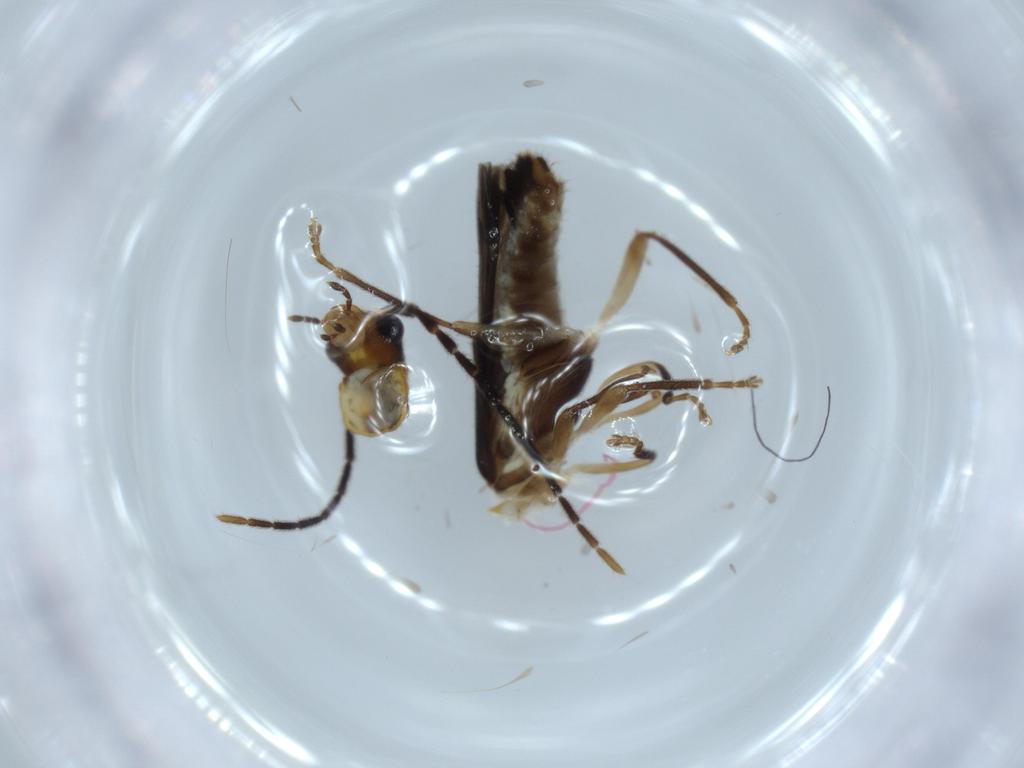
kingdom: Animalia
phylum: Arthropoda
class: Insecta
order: Coleoptera
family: Cantharidae
